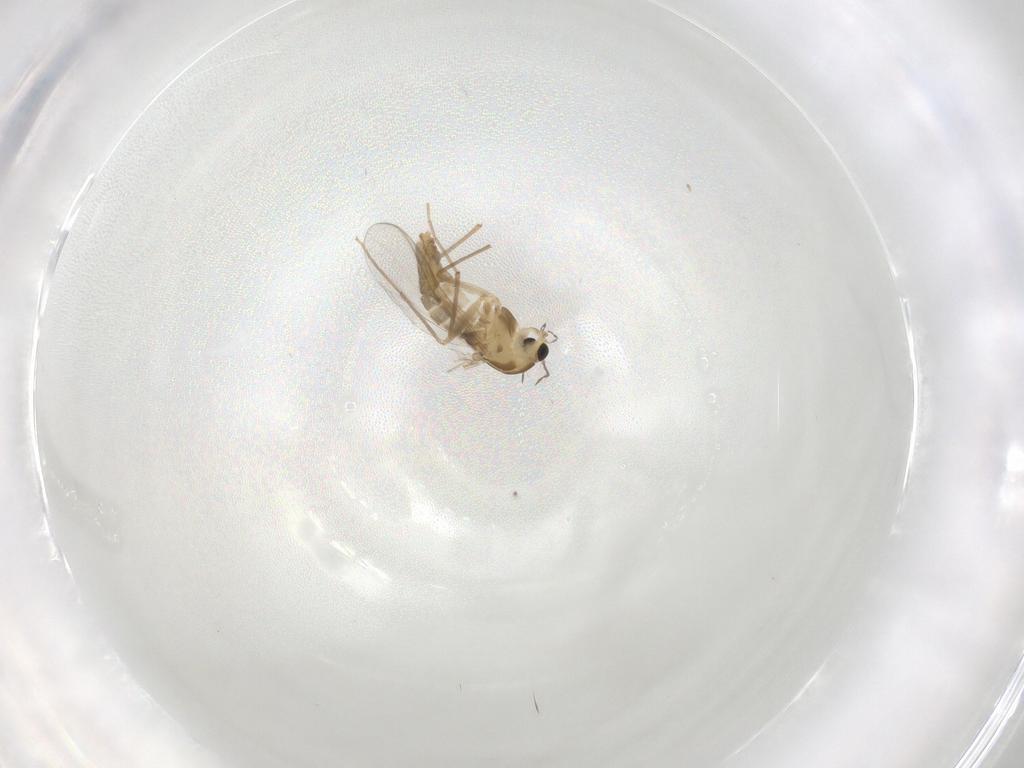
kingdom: Animalia
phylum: Arthropoda
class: Insecta
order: Diptera
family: Chironomidae
